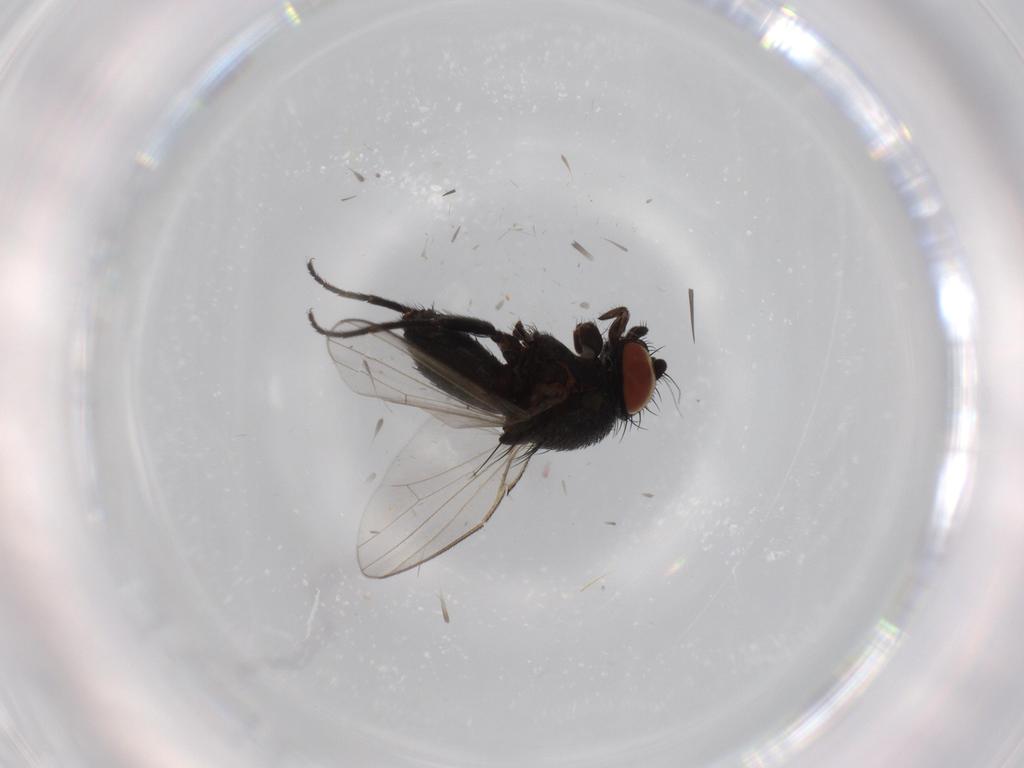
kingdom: Animalia
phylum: Arthropoda
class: Insecta
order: Diptera
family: Milichiidae
